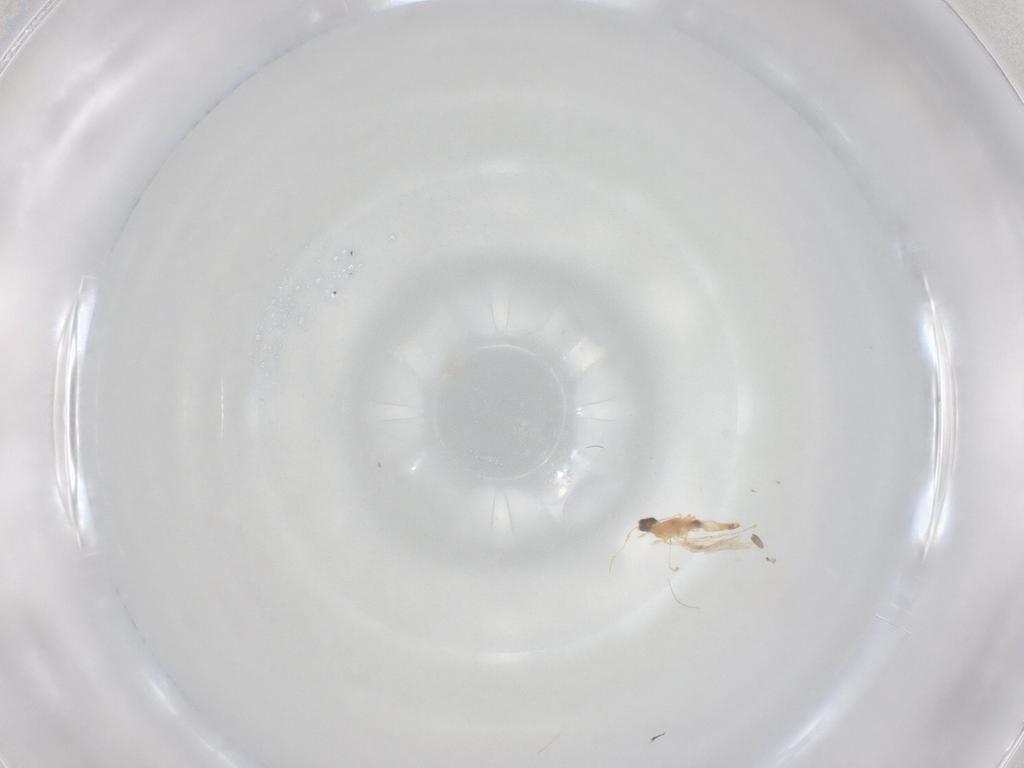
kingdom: Animalia
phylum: Arthropoda
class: Insecta
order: Diptera
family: Cecidomyiidae
